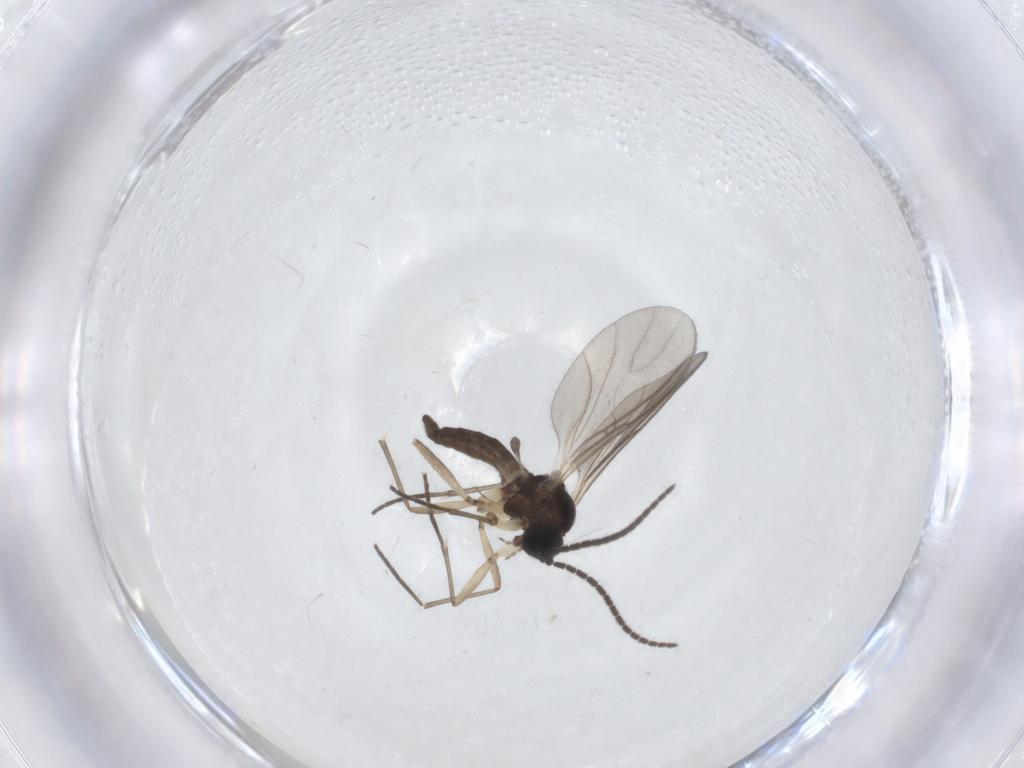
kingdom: Animalia
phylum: Arthropoda
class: Insecta
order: Diptera
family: Sciaridae
